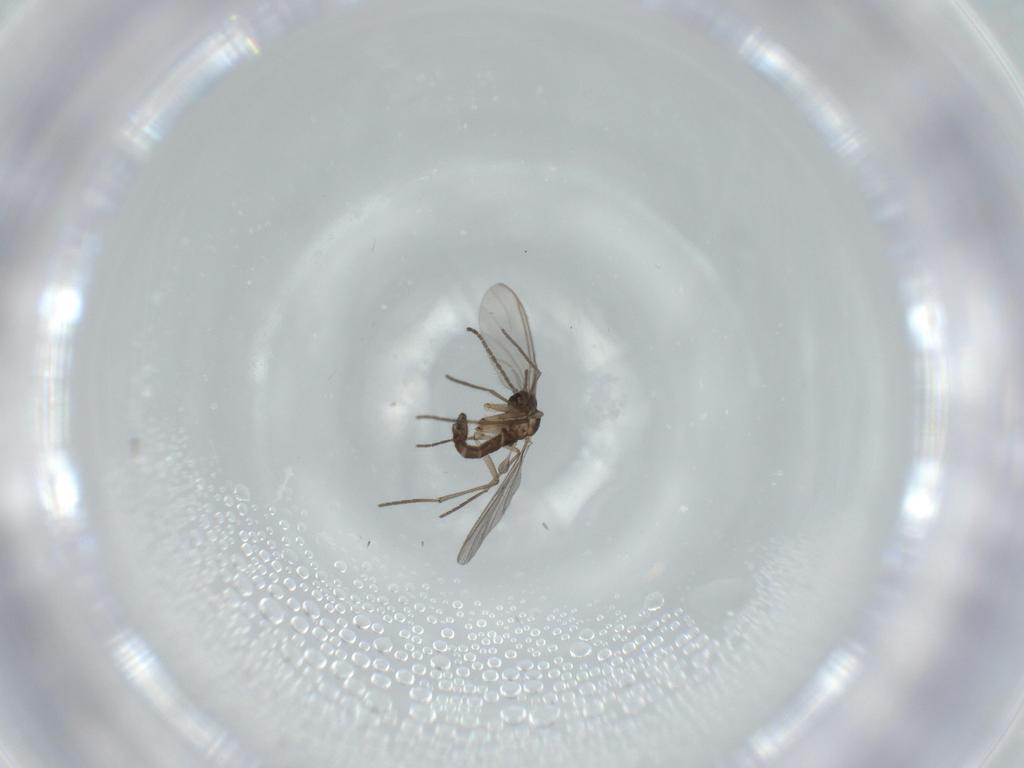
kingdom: Animalia
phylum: Arthropoda
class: Insecta
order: Diptera
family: Sciaridae
